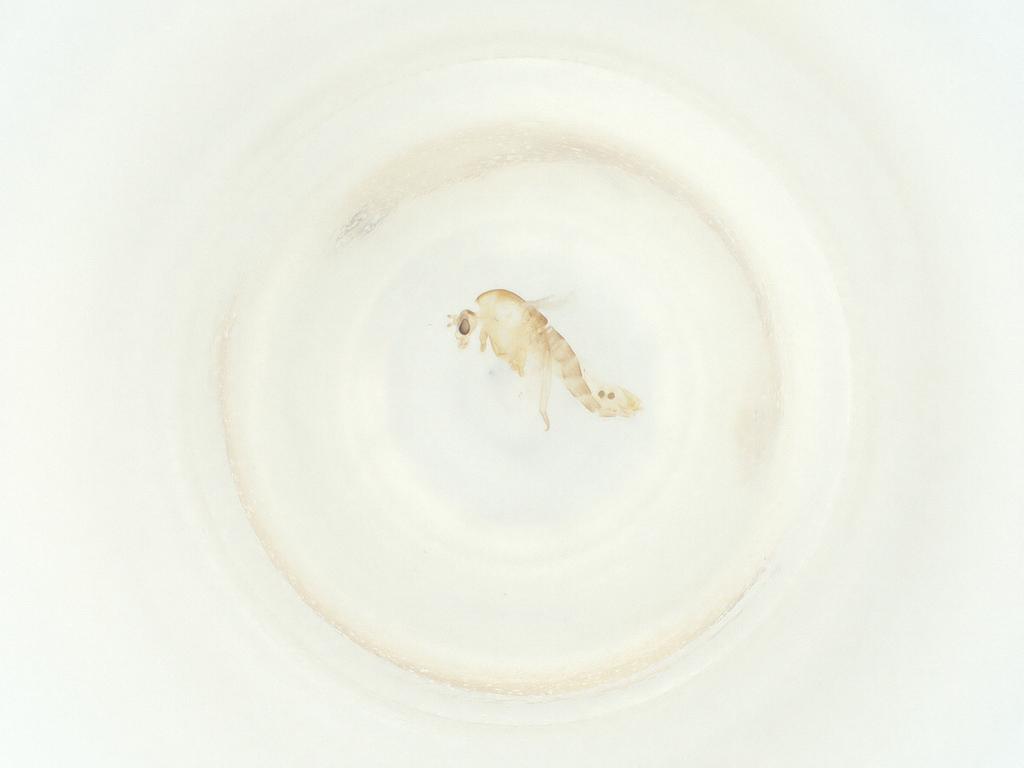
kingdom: Animalia
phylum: Arthropoda
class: Insecta
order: Diptera
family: Chironomidae
